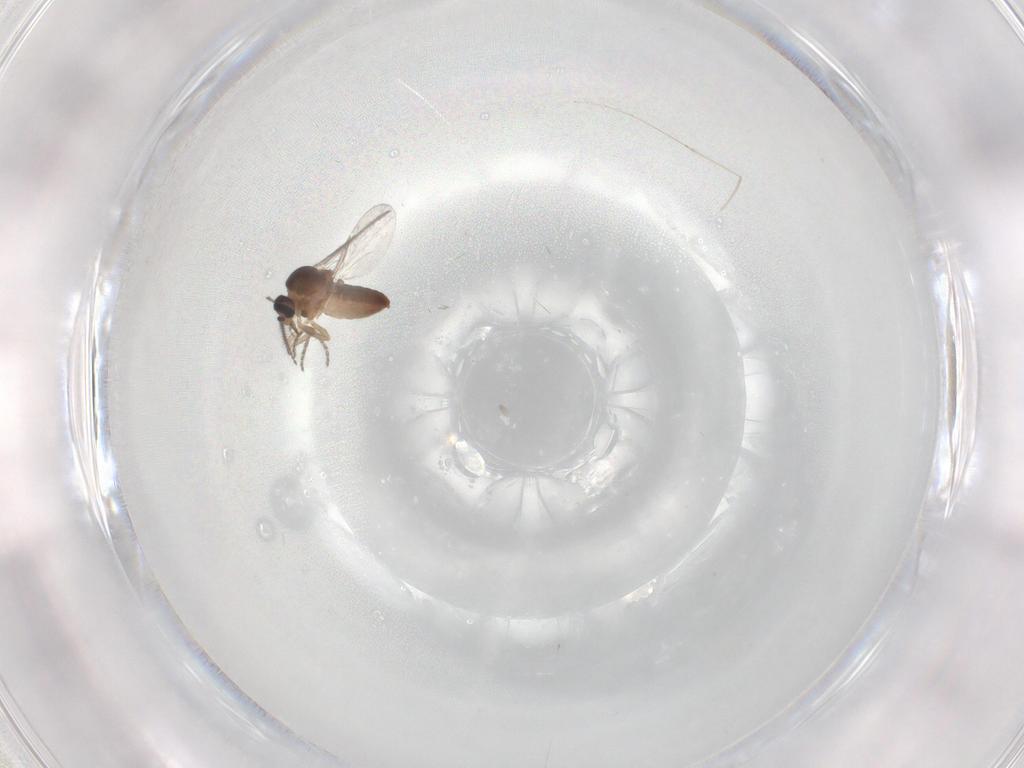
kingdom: Animalia
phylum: Arthropoda
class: Insecta
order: Diptera
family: Ceratopogonidae
